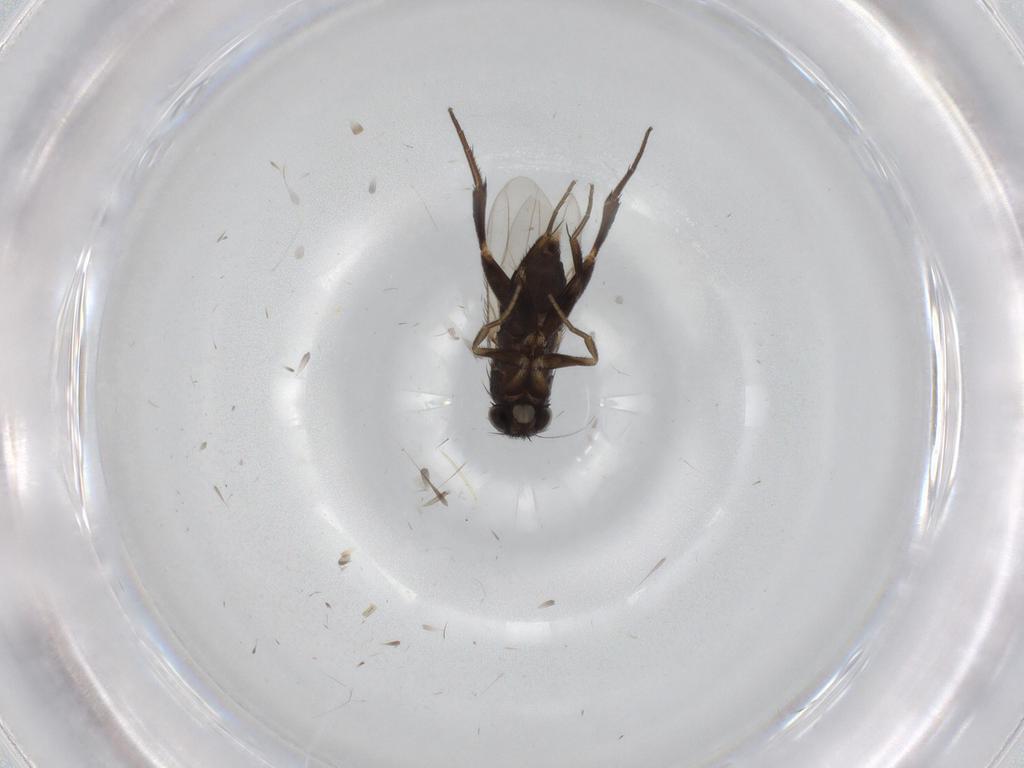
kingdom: Animalia
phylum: Arthropoda
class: Insecta
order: Diptera
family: Phoridae
